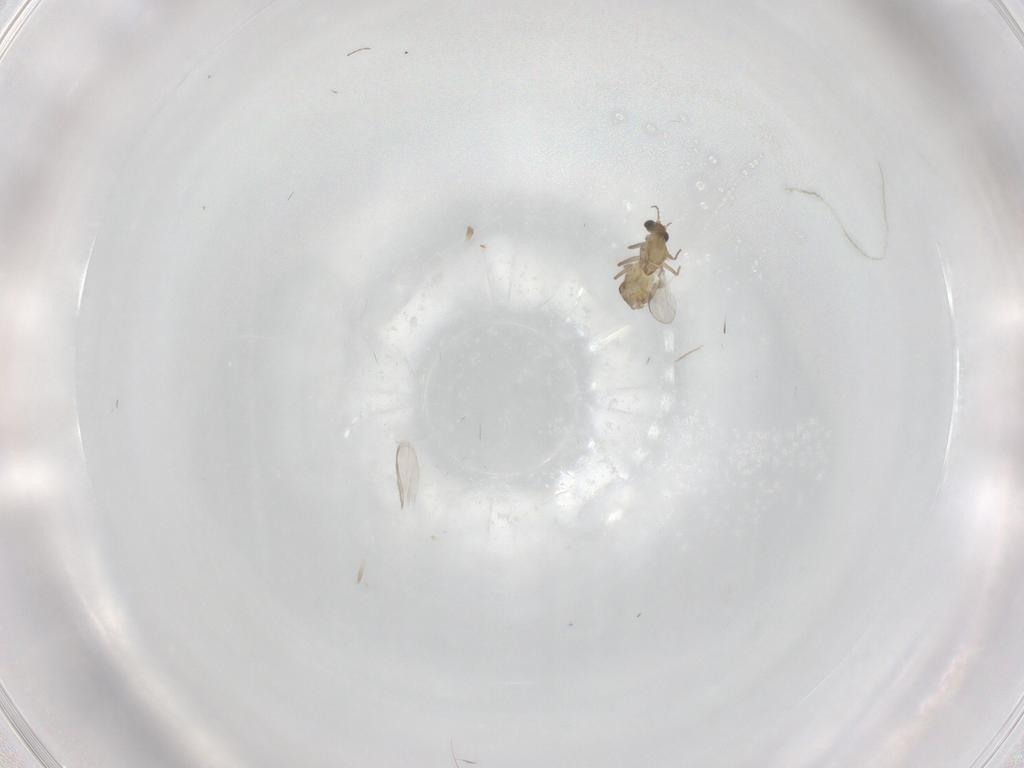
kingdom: Animalia
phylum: Arthropoda
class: Insecta
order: Diptera
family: Chironomidae
